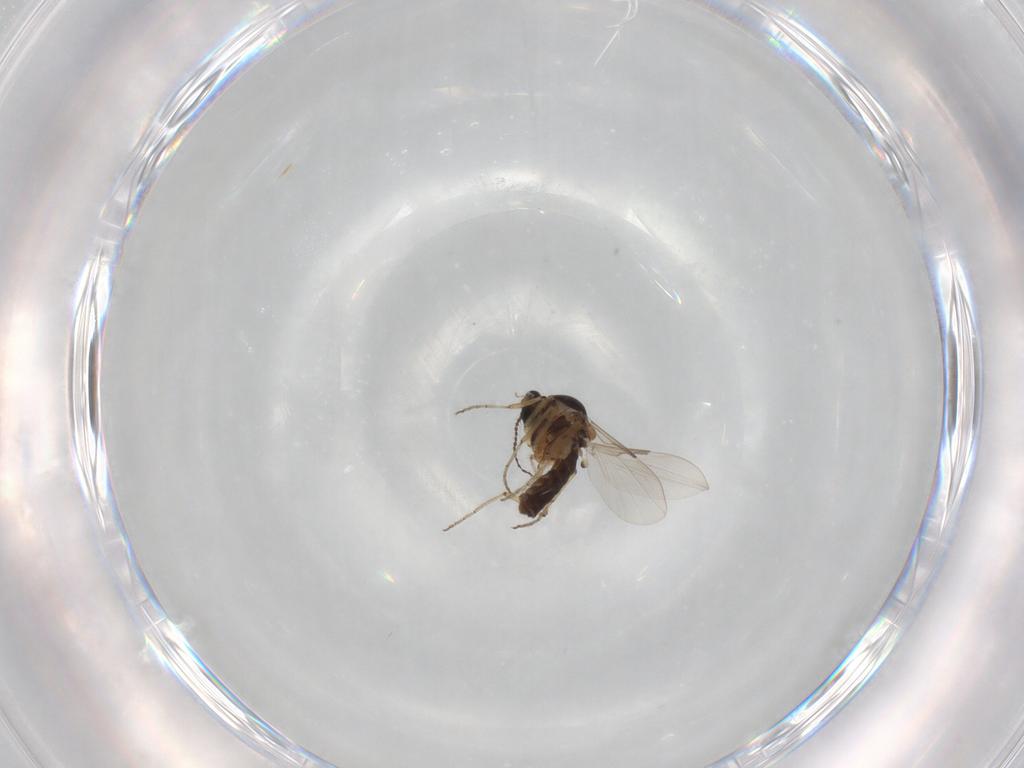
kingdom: Animalia
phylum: Arthropoda
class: Insecta
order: Diptera
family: Ceratopogonidae
